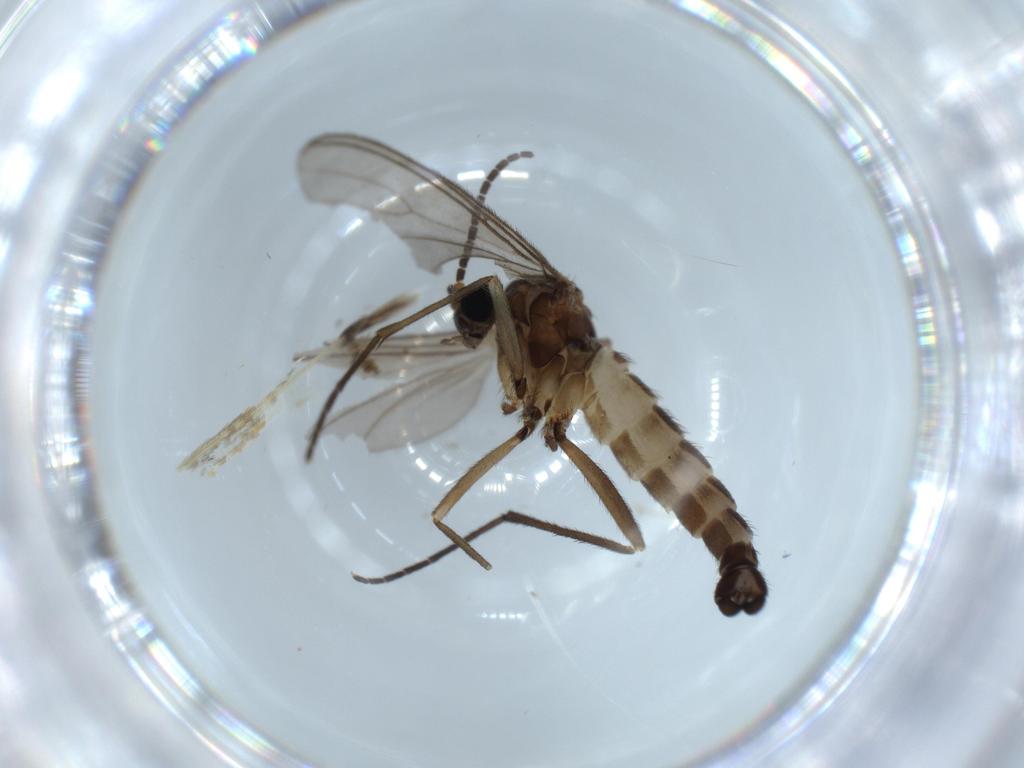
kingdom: Animalia
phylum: Arthropoda
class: Insecta
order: Diptera
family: Sciaridae
